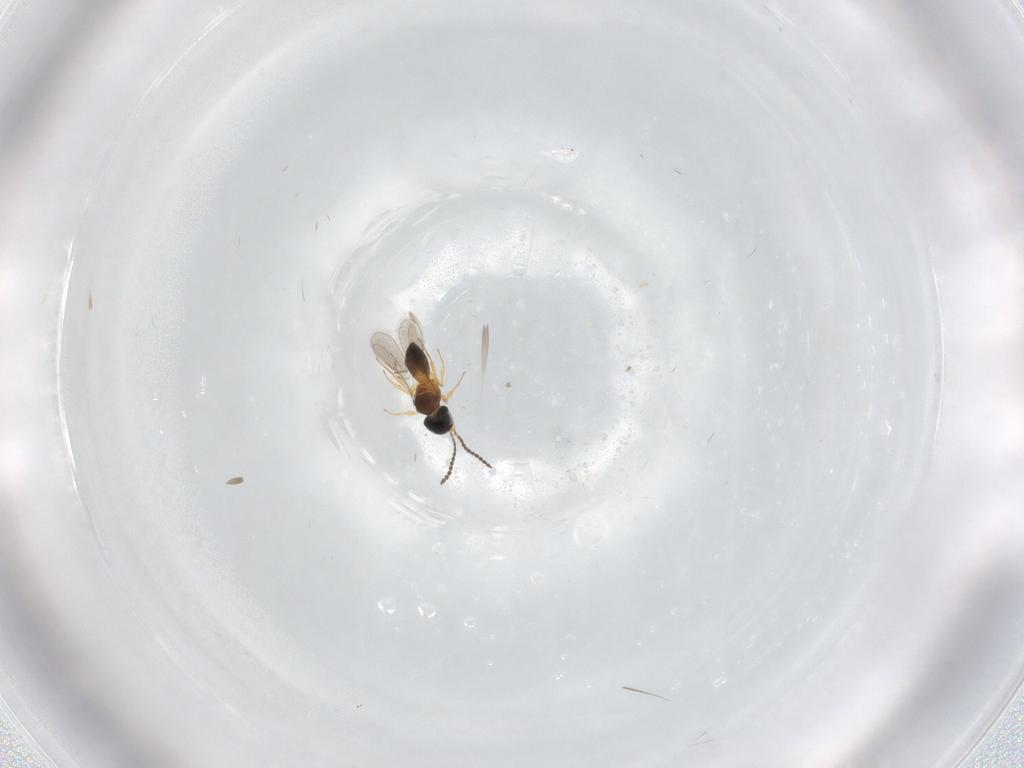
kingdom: Animalia
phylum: Arthropoda
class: Insecta
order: Hymenoptera
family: Scelionidae
